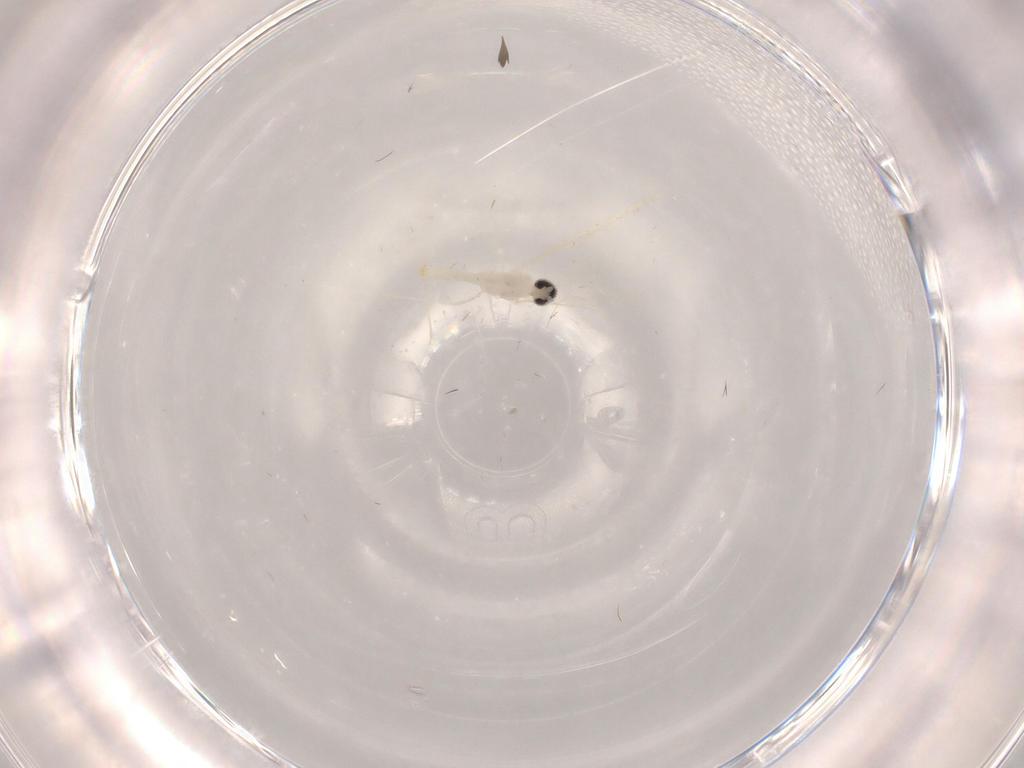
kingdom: Animalia
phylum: Arthropoda
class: Insecta
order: Diptera
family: Cecidomyiidae
